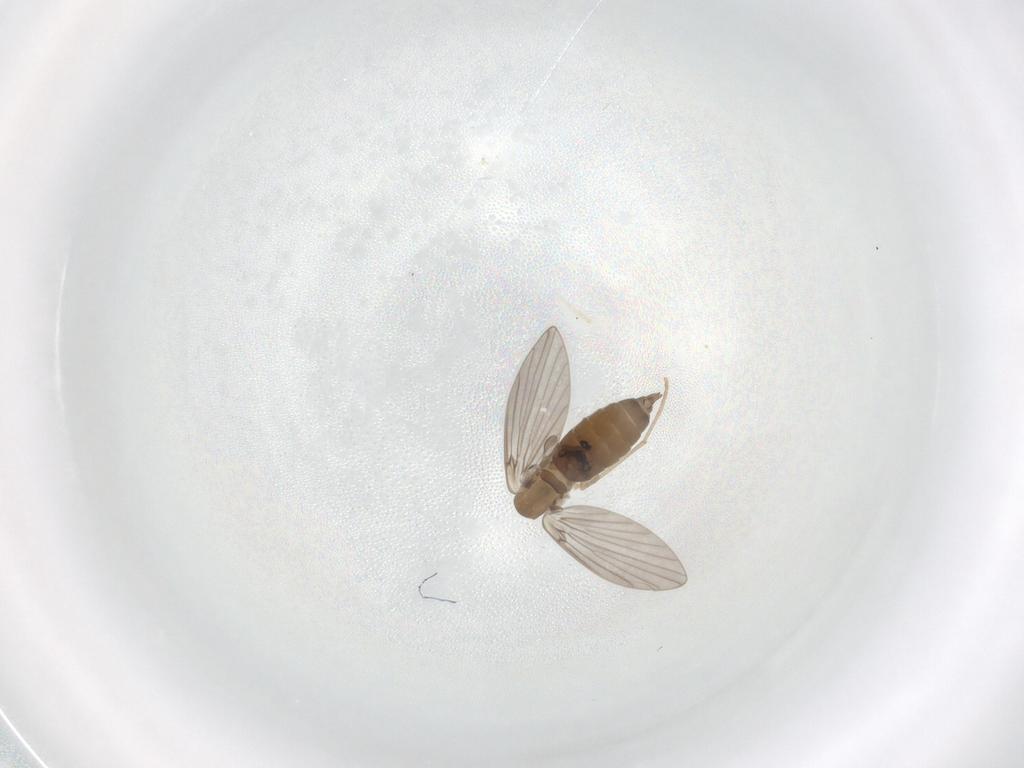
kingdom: Animalia
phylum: Arthropoda
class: Insecta
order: Diptera
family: Psychodidae
